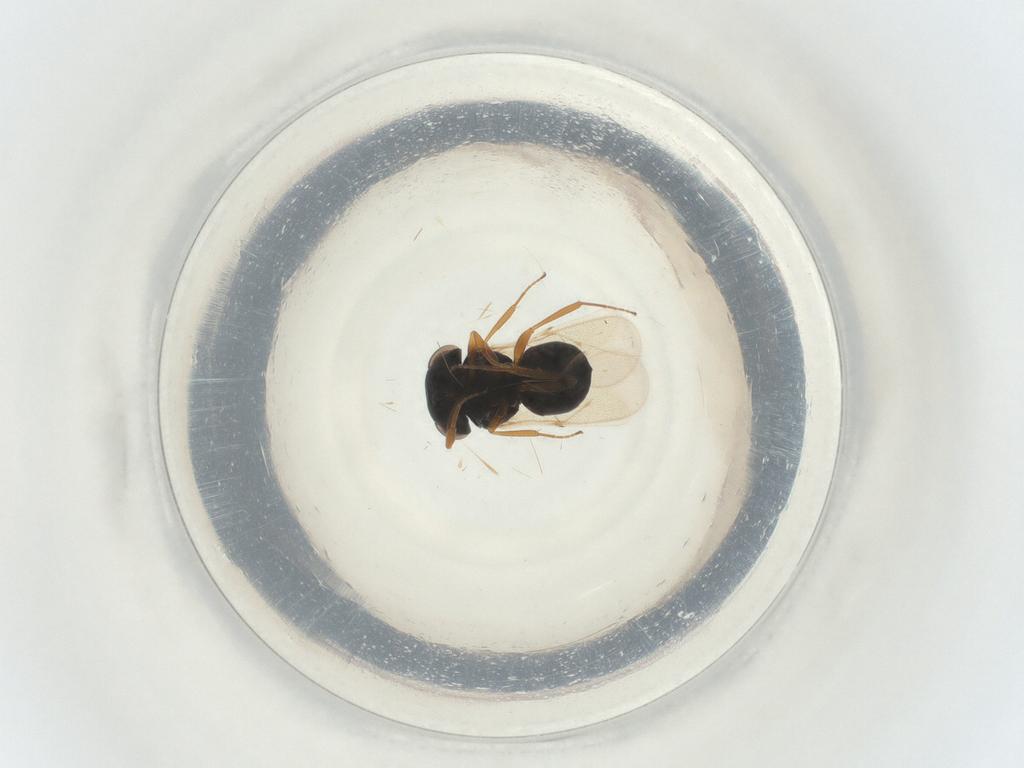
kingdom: Animalia
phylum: Arthropoda
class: Insecta
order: Hymenoptera
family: Scelionidae
